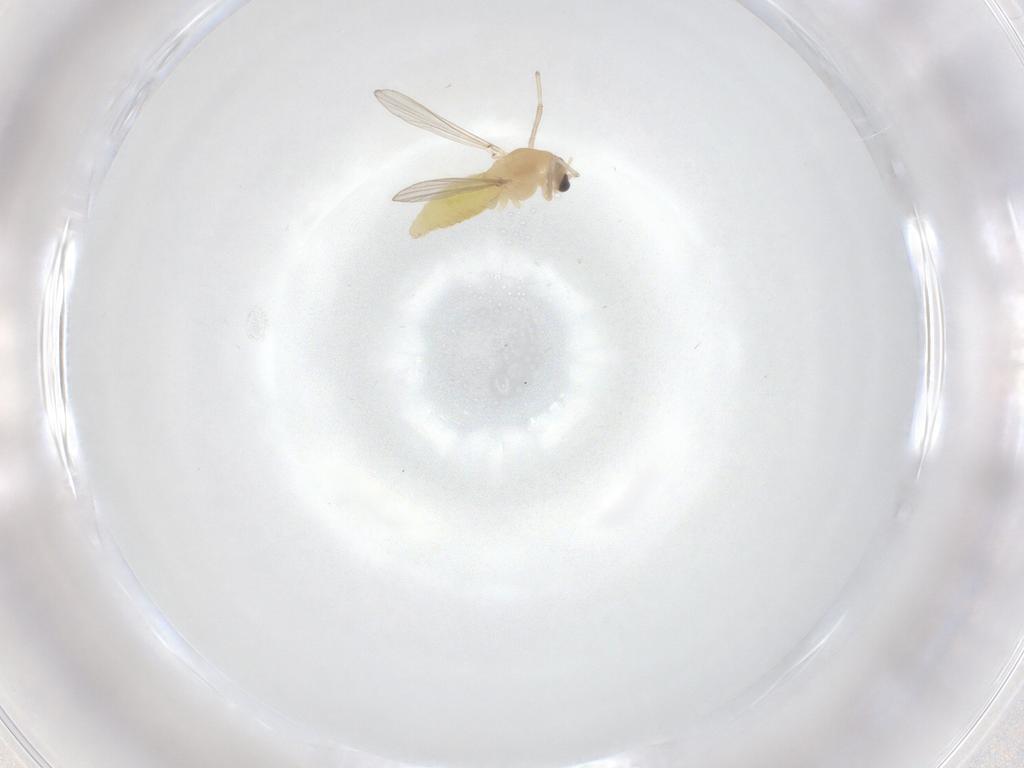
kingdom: Animalia
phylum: Arthropoda
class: Insecta
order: Diptera
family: Chironomidae
